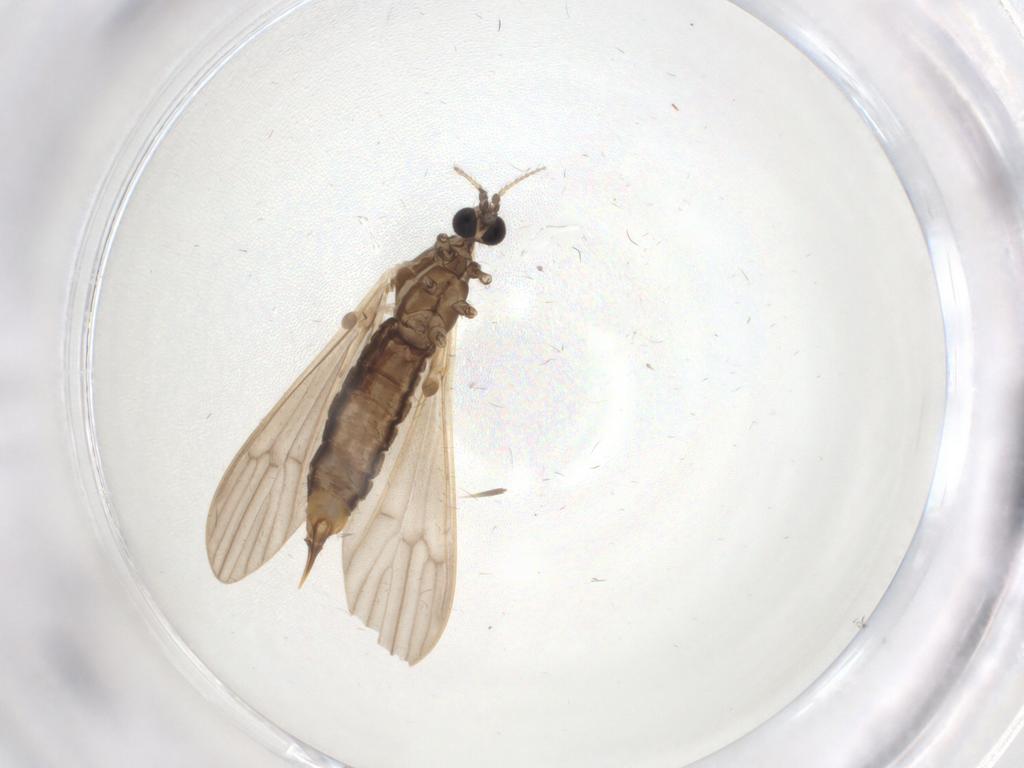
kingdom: Animalia
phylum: Arthropoda
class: Insecta
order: Diptera
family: Limoniidae
